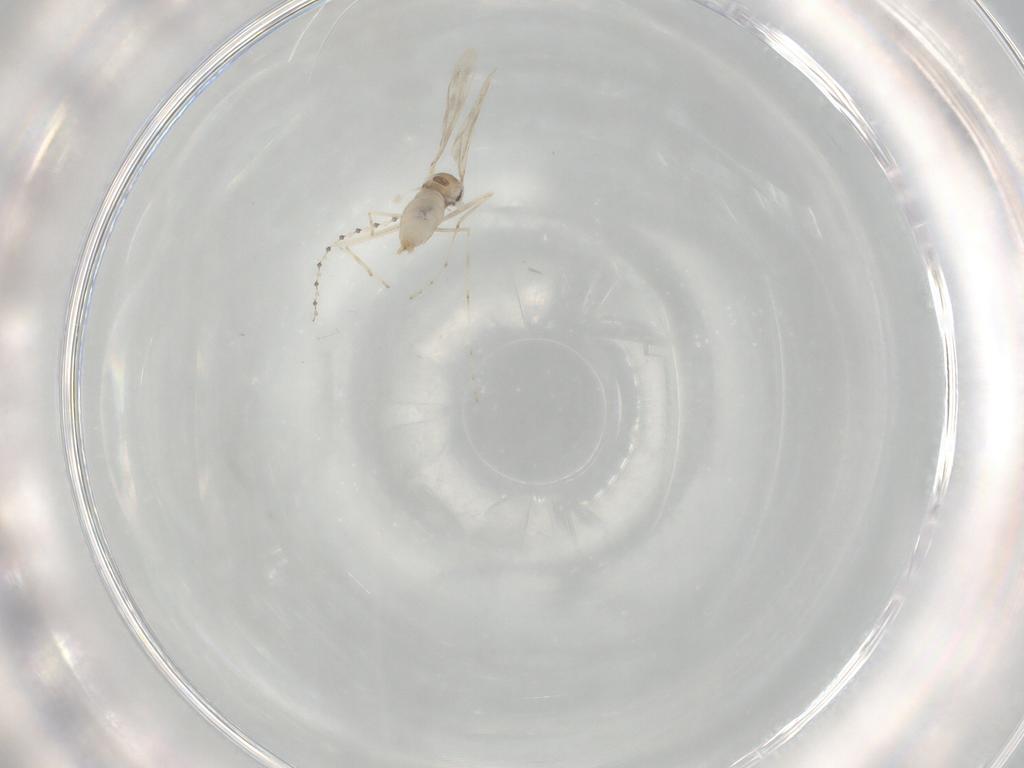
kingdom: Animalia
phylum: Arthropoda
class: Insecta
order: Diptera
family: Cecidomyiidae
